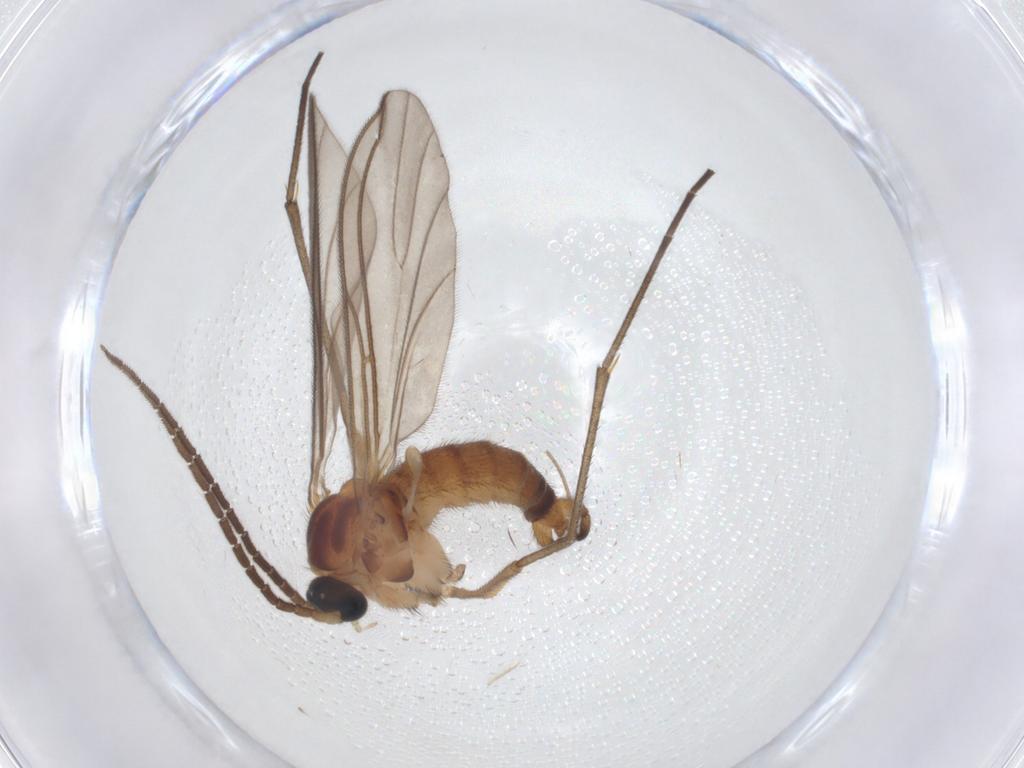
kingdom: Animalia
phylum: Arthropoda
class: Insecta
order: Diptera
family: Sciaridae
